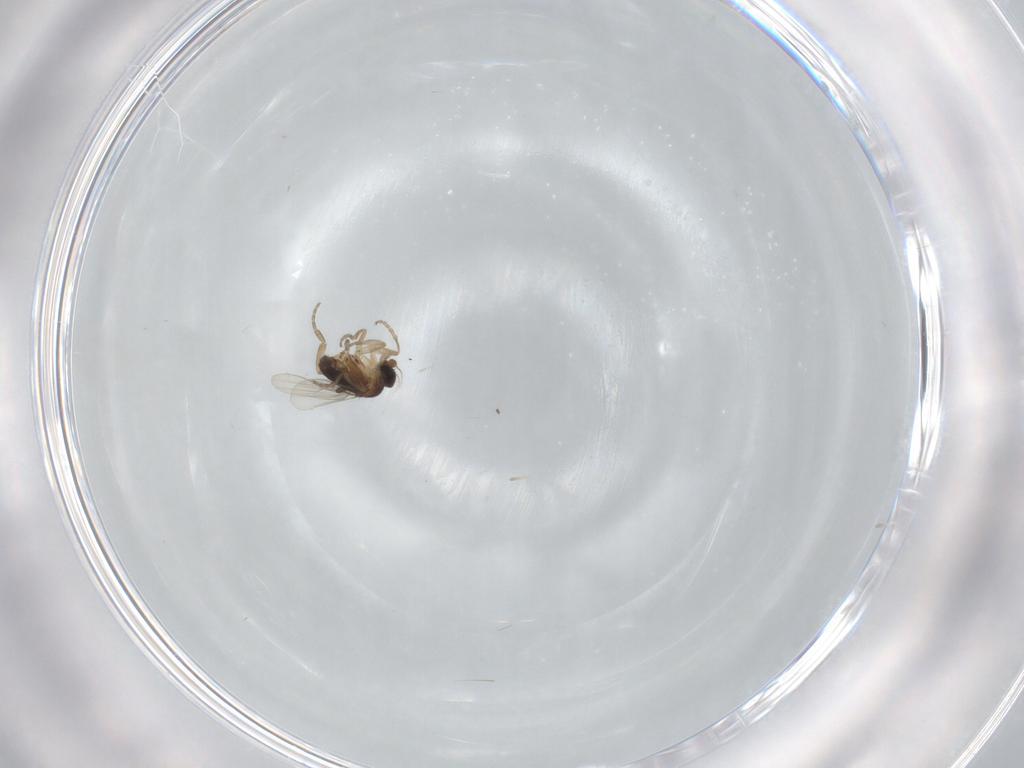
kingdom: Animalia
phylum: Arthropoda
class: Insecta
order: Diptera
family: Phoridae
